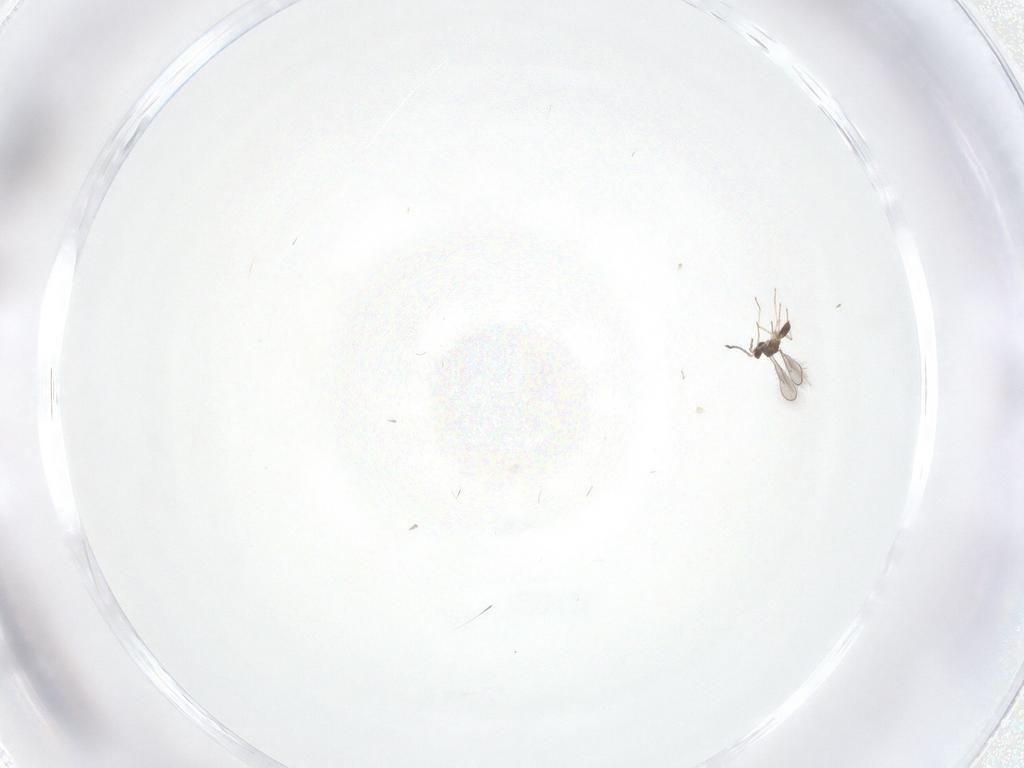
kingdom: Animalia
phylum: Arthropoda
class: Insecta
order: Hymenoptera
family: Eulophidae
